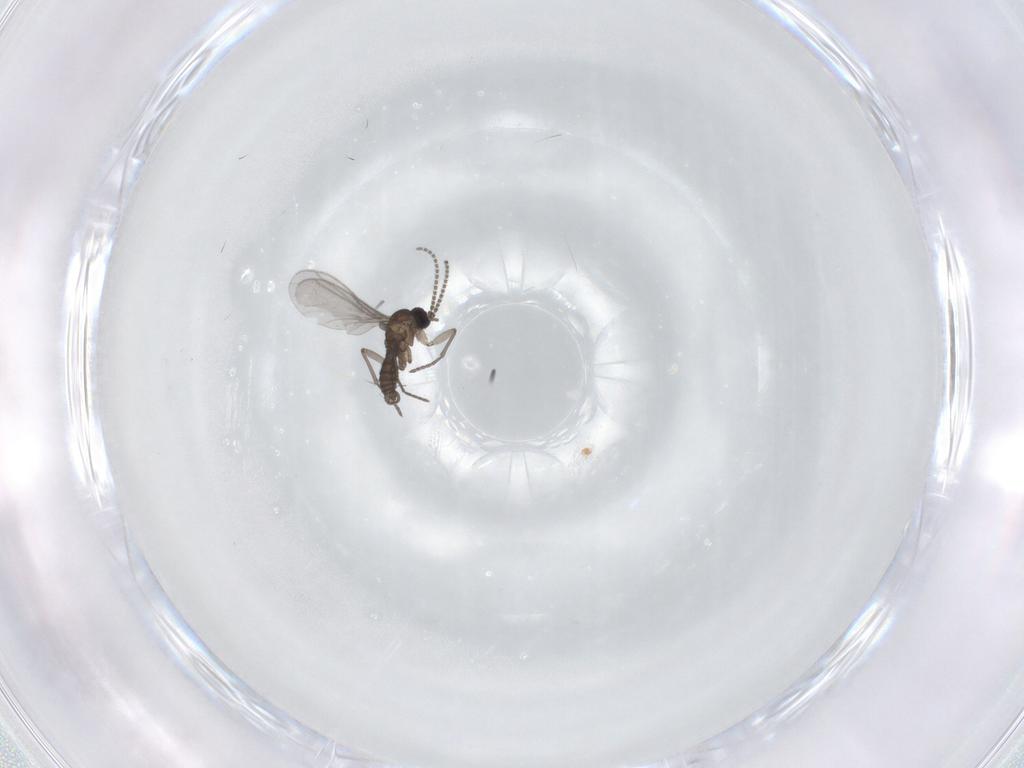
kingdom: Animalia
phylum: Arthropoda
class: Insecta
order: Diptera
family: Sciaridae
